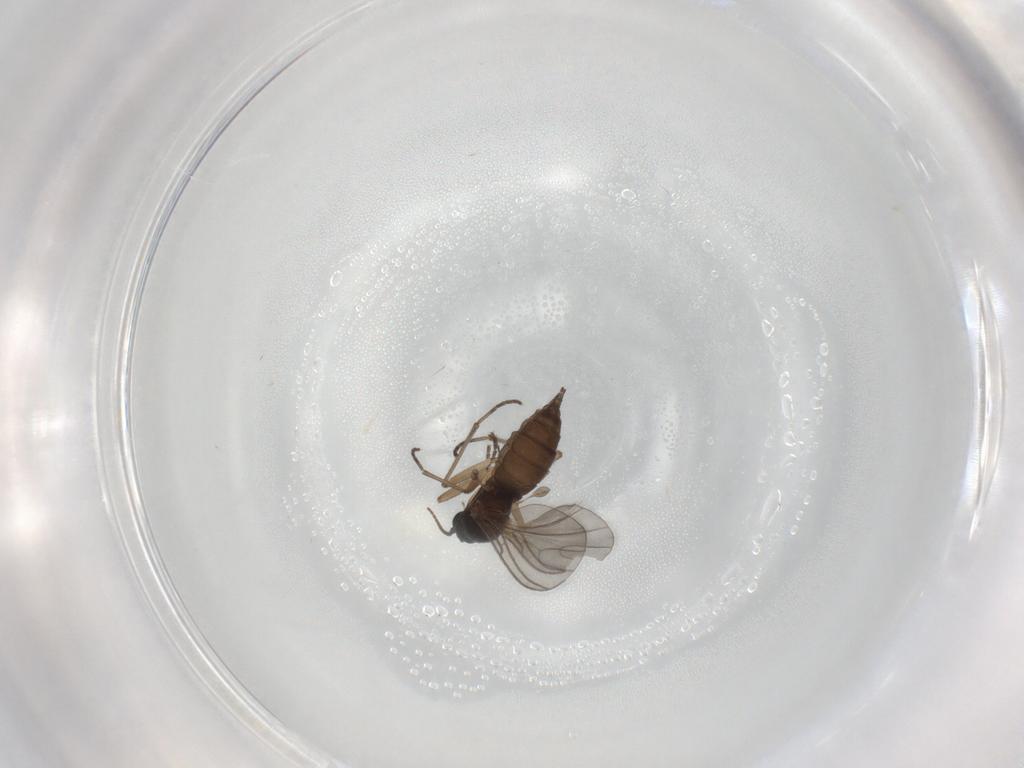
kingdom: Animalia
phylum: Arthropoda
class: Insecta
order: Diptera
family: Sciaridae
